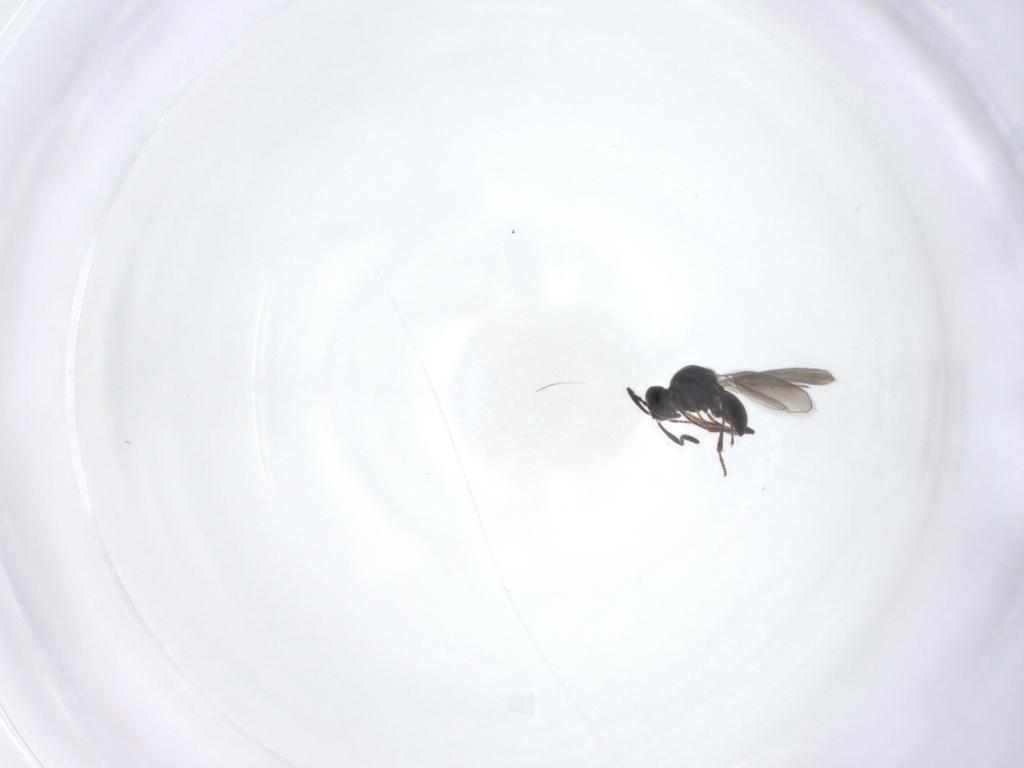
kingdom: Animalia
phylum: Arthropoda
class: Insecta
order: Hymenoptera
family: Platygastridae
